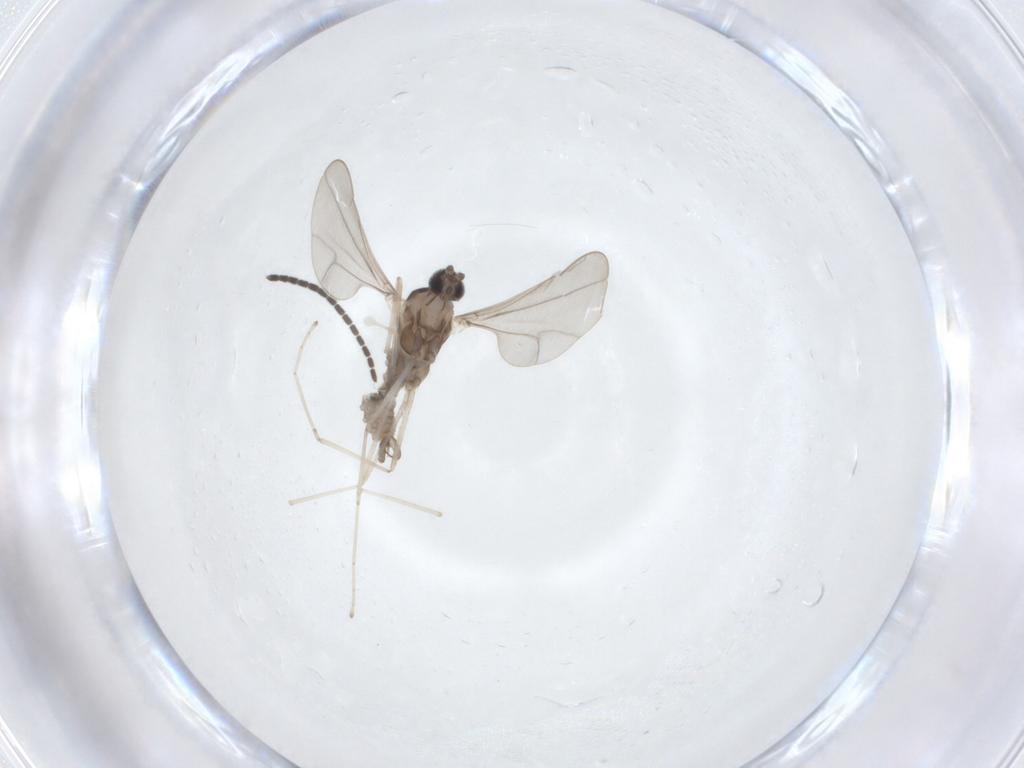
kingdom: Animalia
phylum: Arthropoda
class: Insecta
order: Diptera
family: Cecidomyiidae
